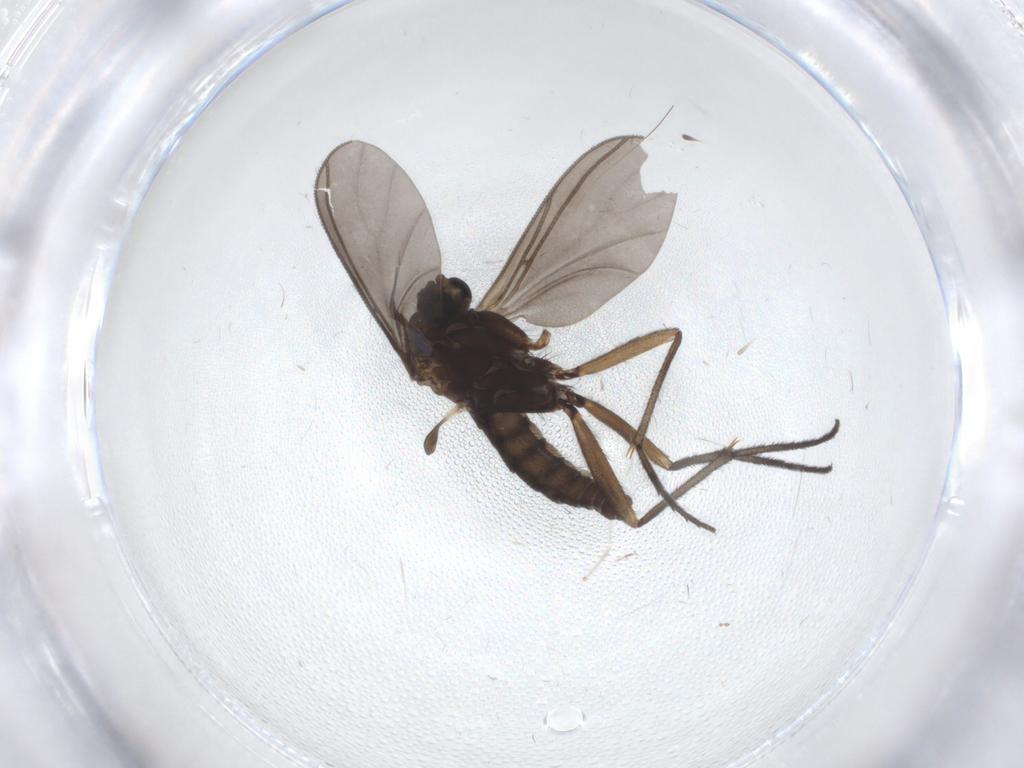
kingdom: Animalia
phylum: Arthropoda
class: Insecta
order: Diptera
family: Sciaridae
